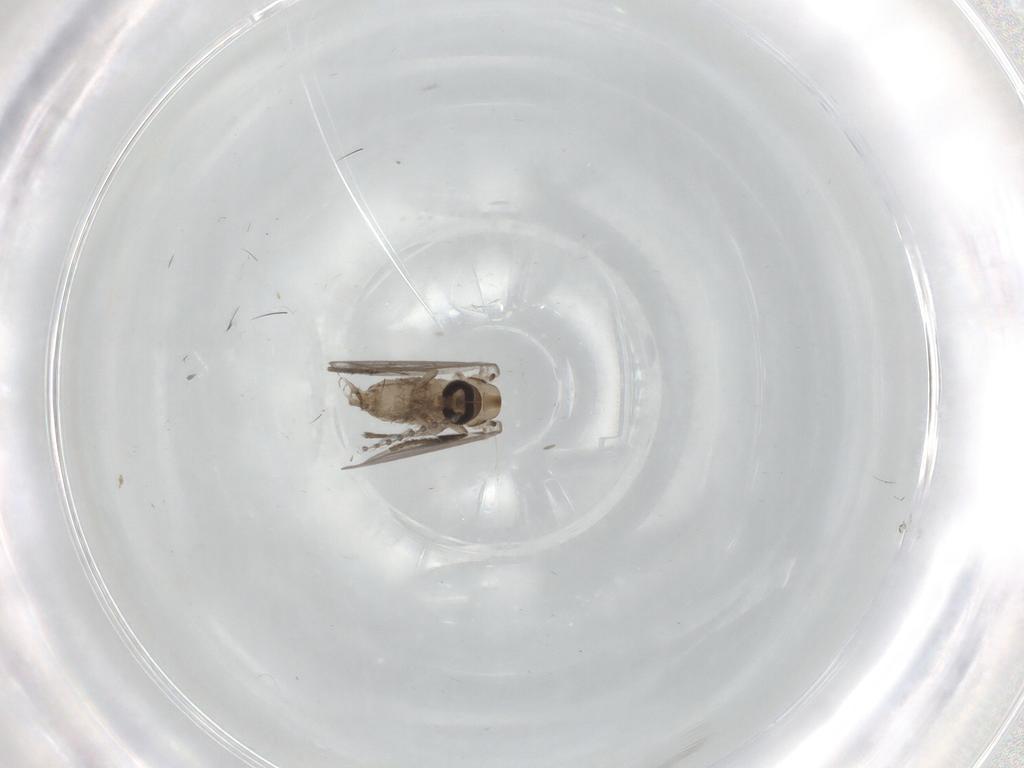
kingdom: Animalia
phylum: Arthropoda
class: Insecta
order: Diptera
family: Psychodidae
